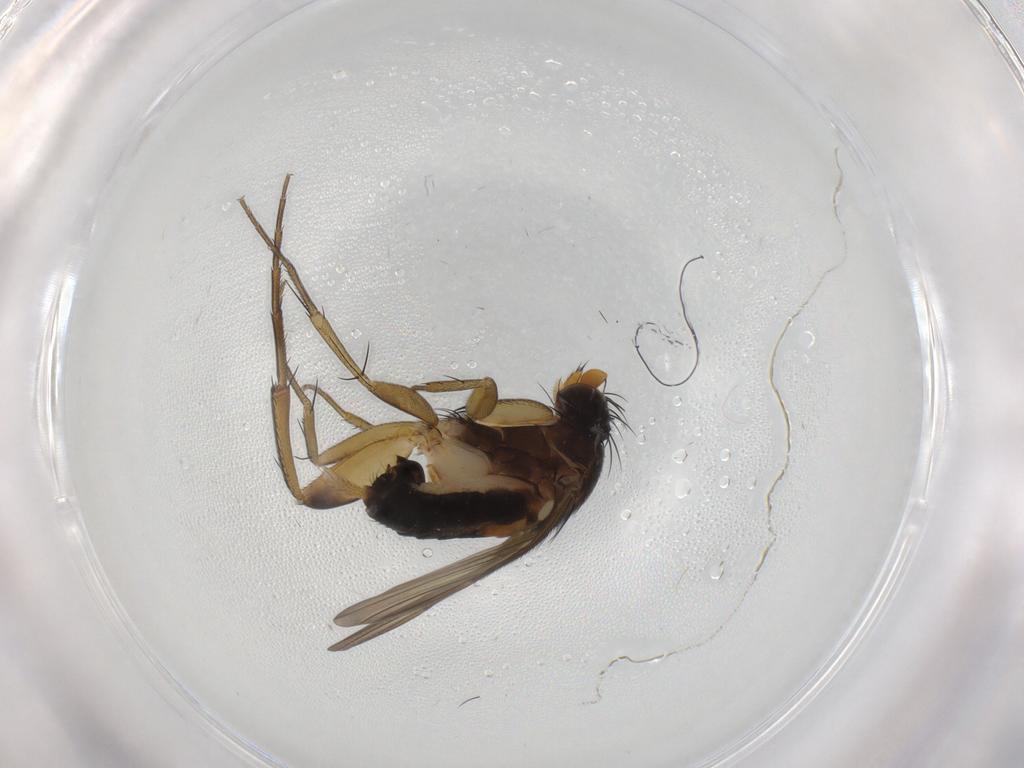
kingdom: Animalia
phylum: Arthropoda
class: Insecta
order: Diptera
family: Phoridae
